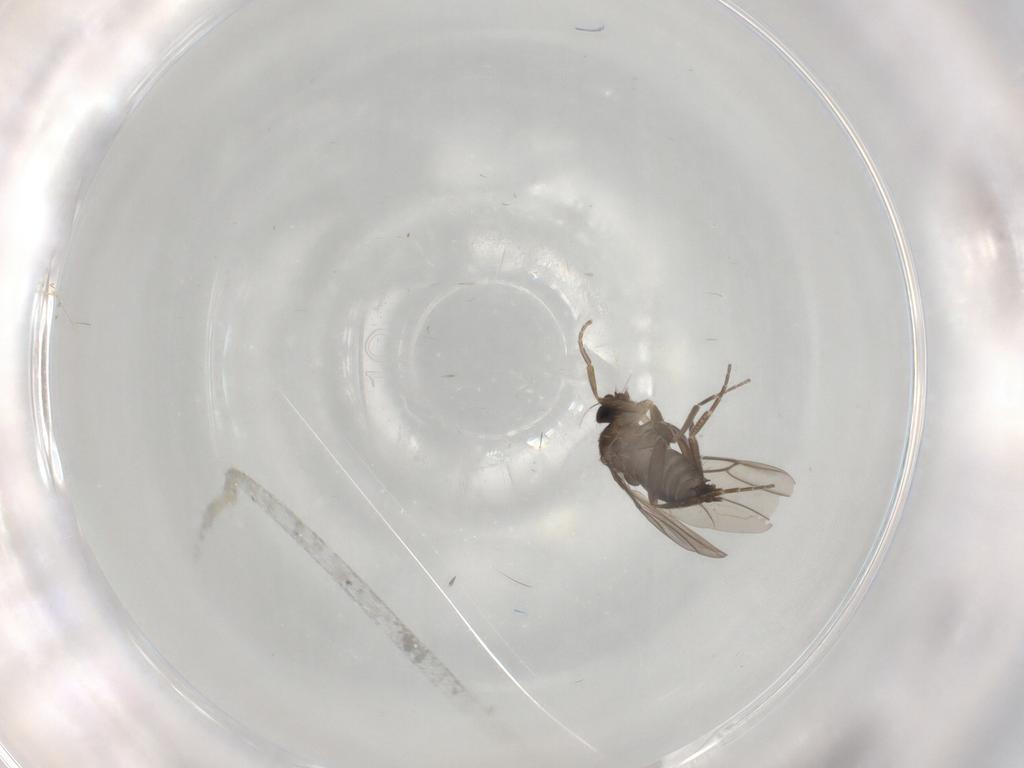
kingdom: Animalia
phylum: Arthropoda
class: Insecta
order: Diptera
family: Phoridae
